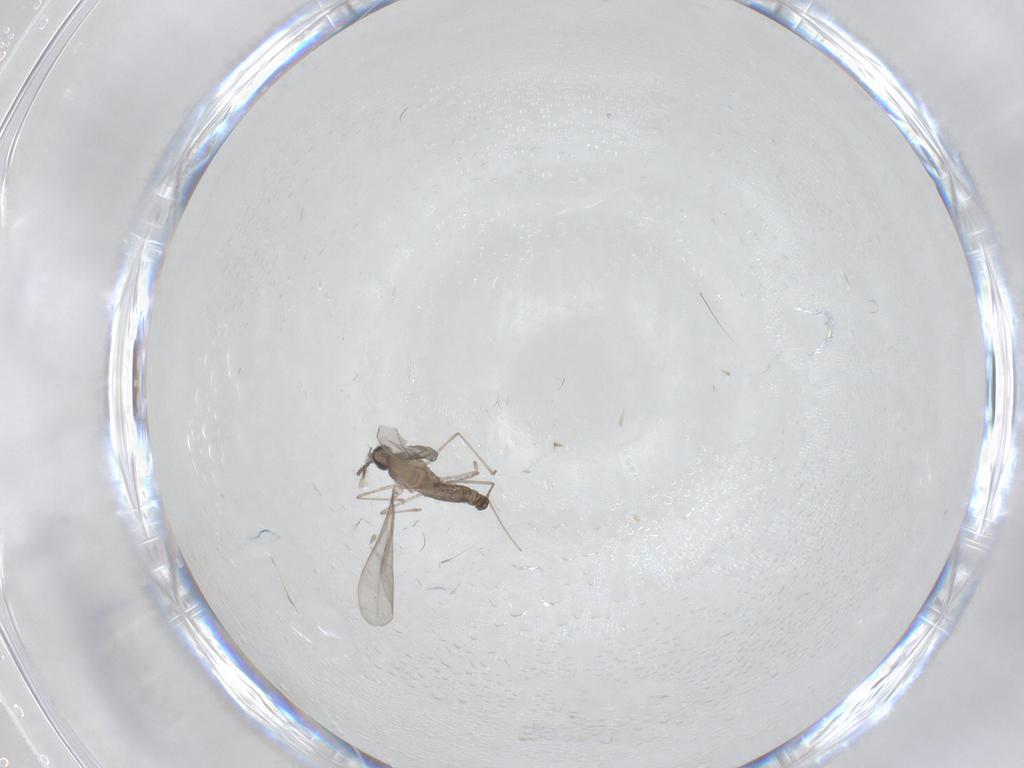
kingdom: Animalia
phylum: Arthropoda
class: Insecta
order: Diptera
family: Cecidomyiidae
